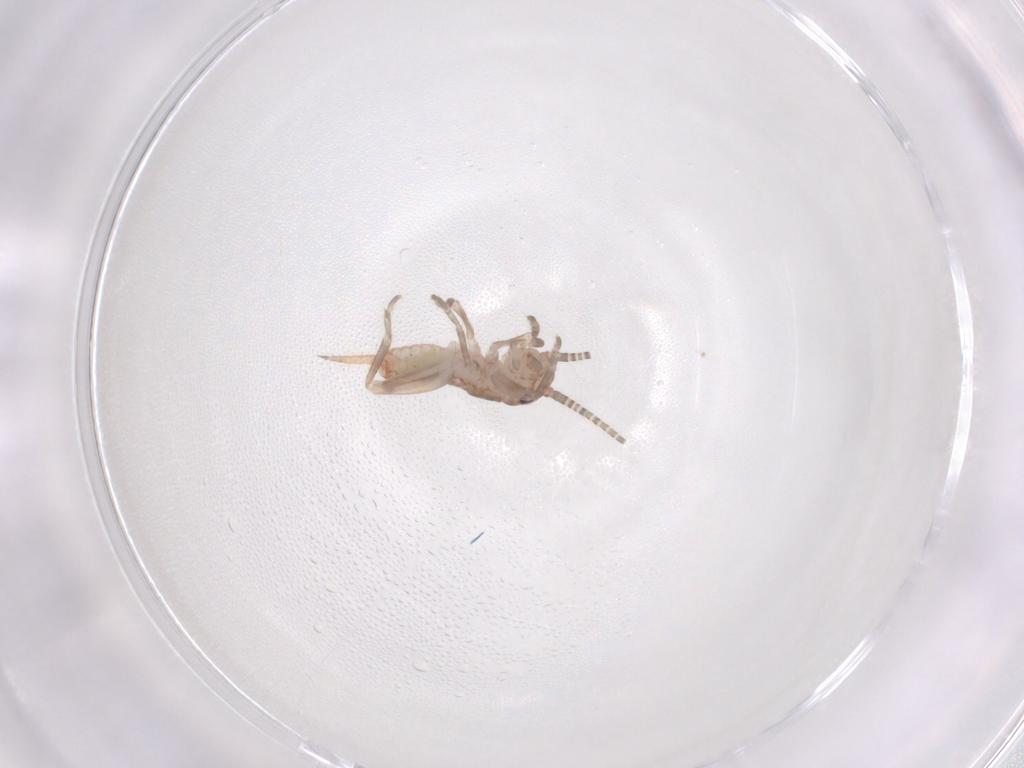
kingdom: Animalia
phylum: Arthropoda
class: Insecta
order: Orthoptera
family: Gryllidae
